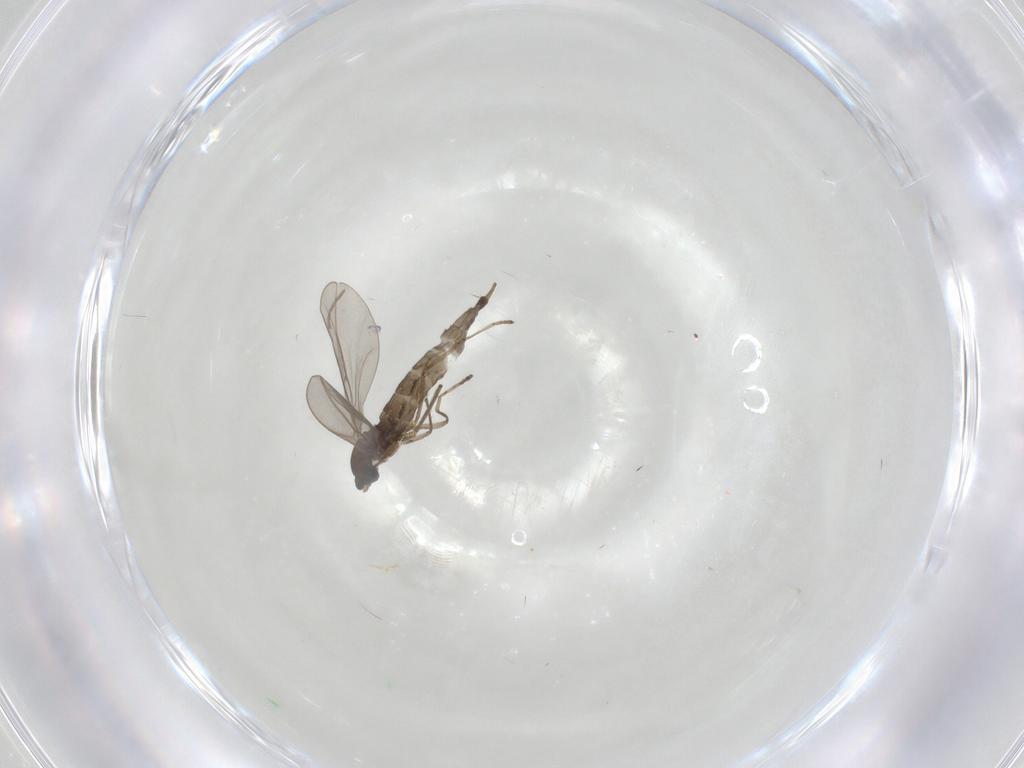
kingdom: Animalia
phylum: Arthropoda
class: Insecta
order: Diptera
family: Cecidomyiidae
